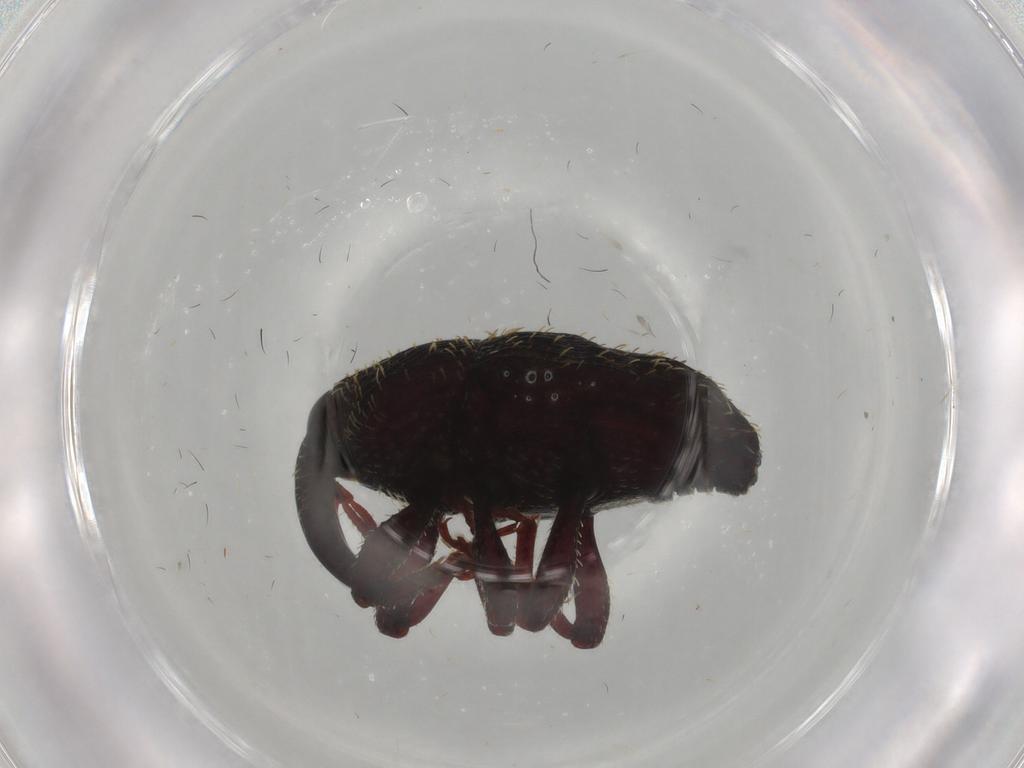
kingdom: Animalia
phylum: Arthropoda
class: Insecta
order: Coleoptera
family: Curculionidae
